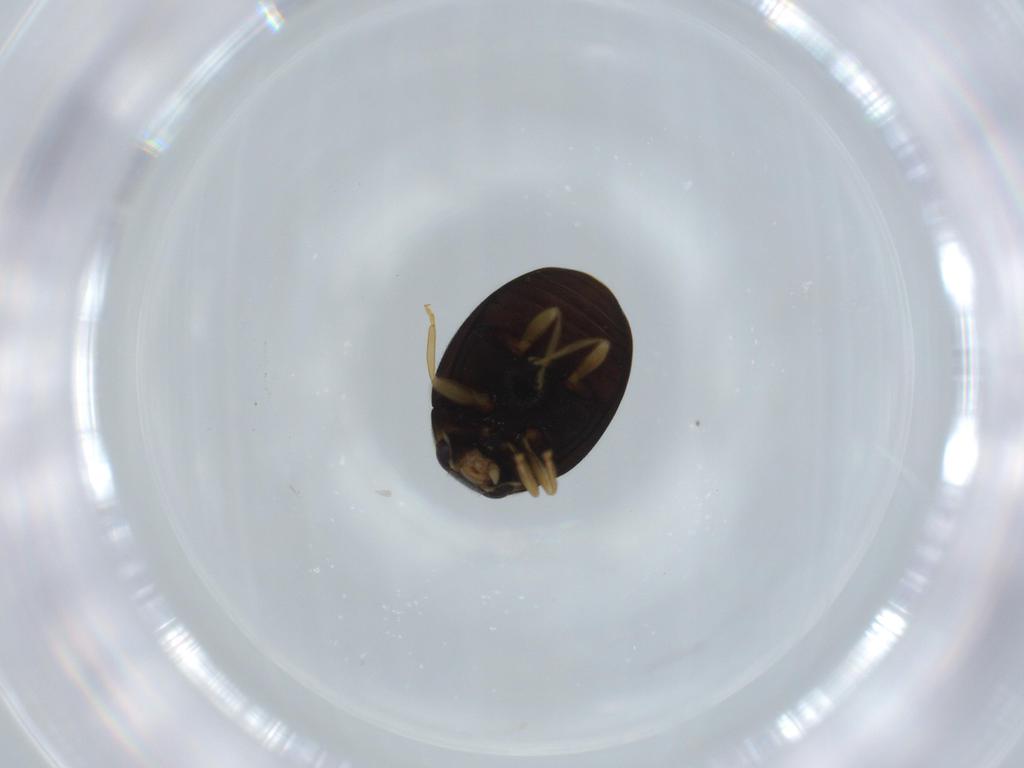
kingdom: Animalia
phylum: Arthropoda
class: Insecta
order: Coleoptera
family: Coccinellidae
